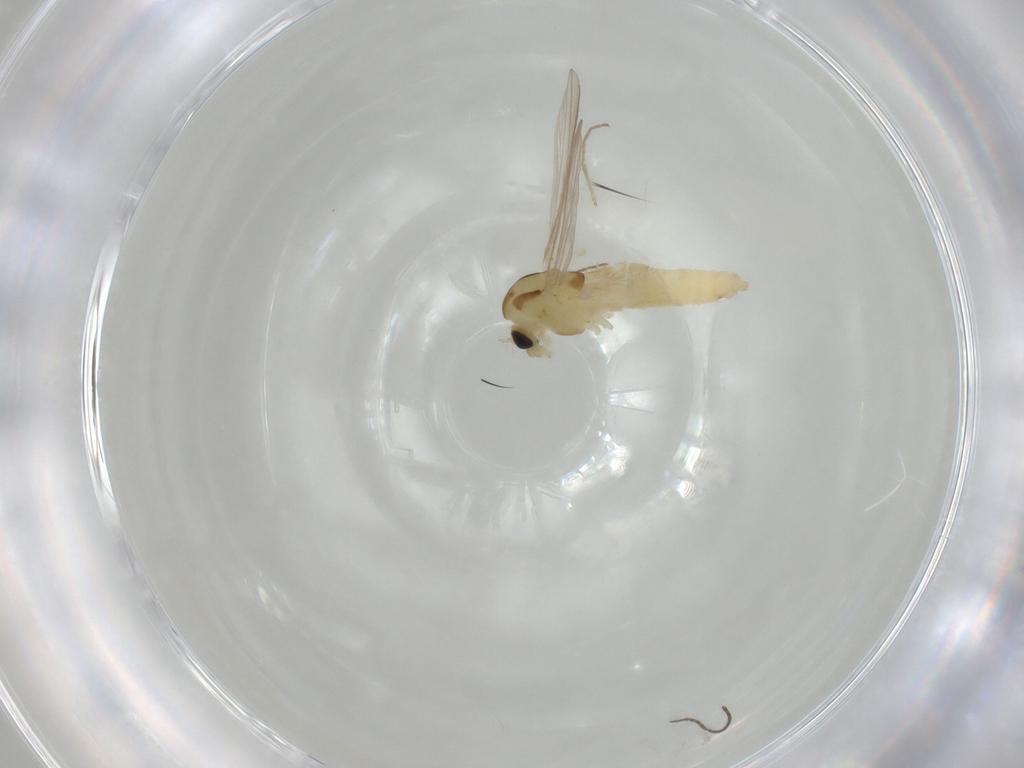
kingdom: Animalia
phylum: Arthropoda
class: Insecta
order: Diptera
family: Chironomidae
